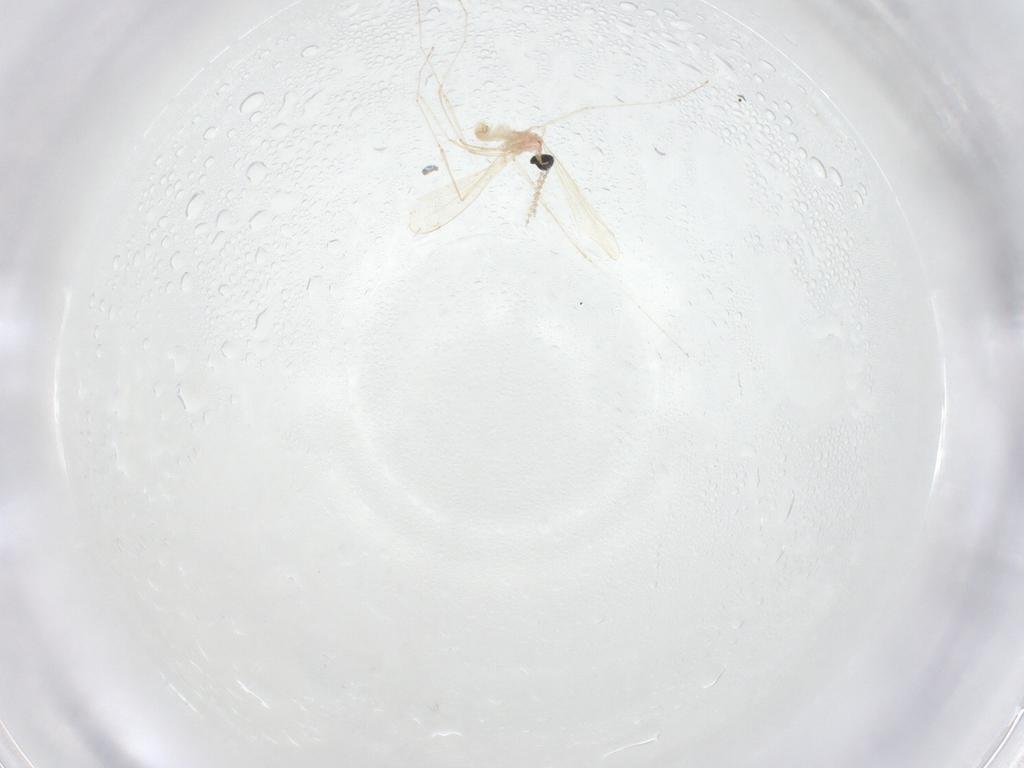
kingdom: Animalia
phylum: Arthropoda
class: Insecta
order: Diptera
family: Cecidomyiidae
